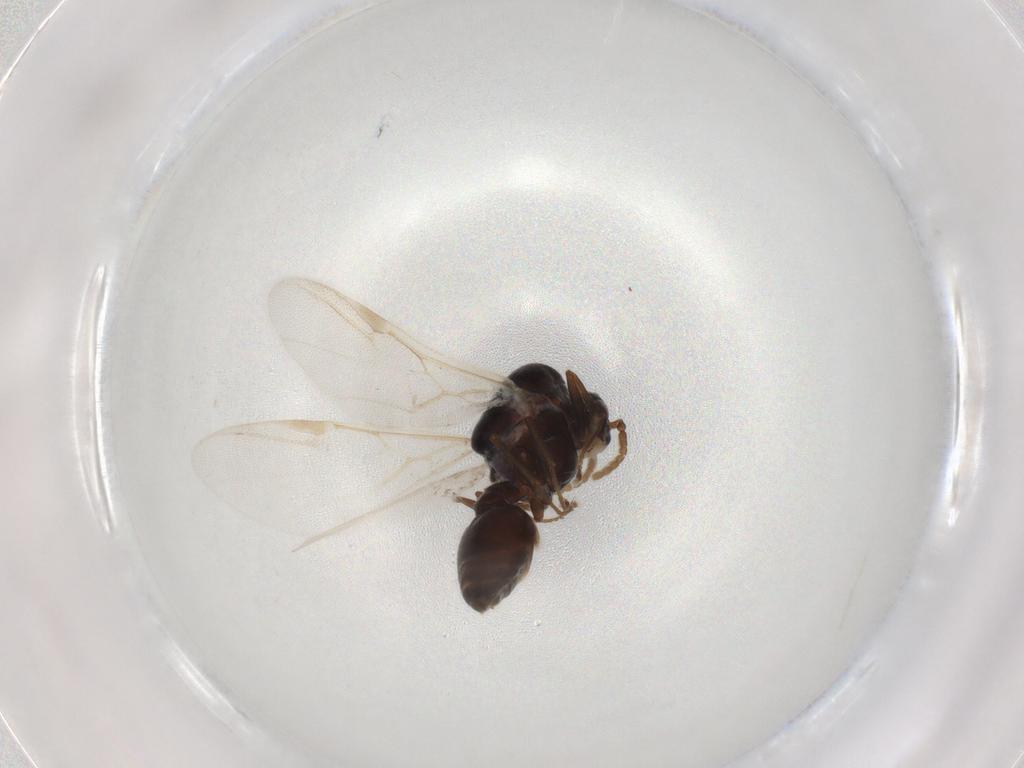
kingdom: Animalia
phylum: Arthropoda
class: Insecta
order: Hymenoptera
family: Formicidae
